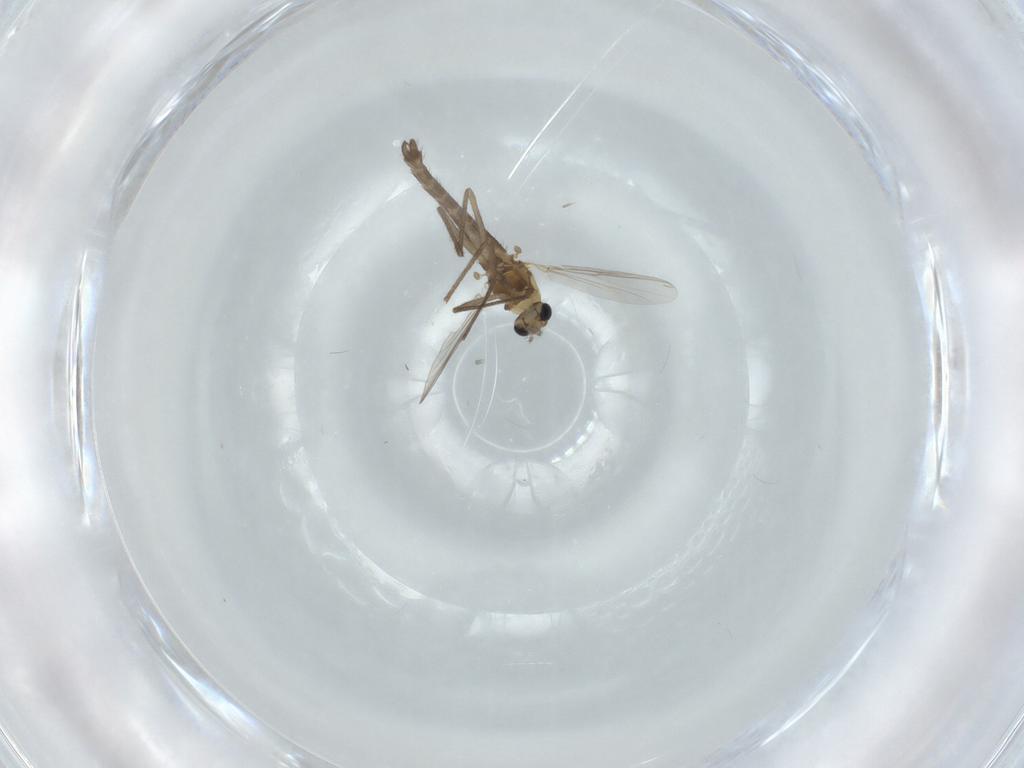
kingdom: Animalia
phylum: Arthropoda
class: Insecta
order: Diptera
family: Chironomidae
